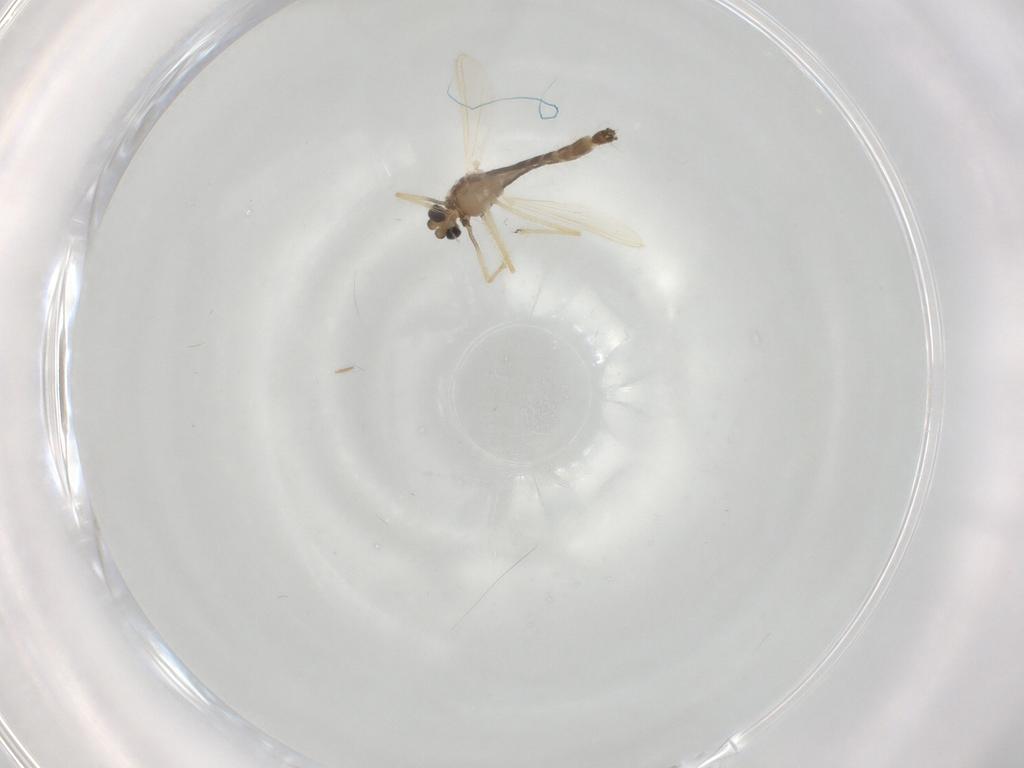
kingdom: Animalia
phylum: Arthropoda
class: Insecta
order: Diptera
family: Chironomidae
